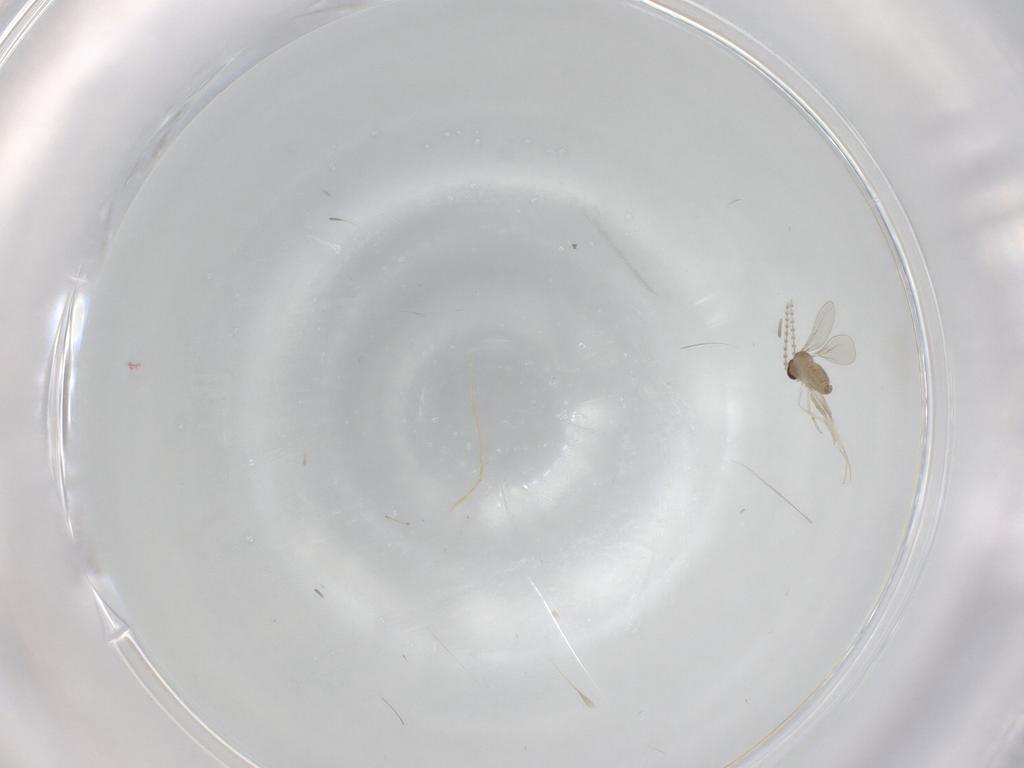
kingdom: Animalia
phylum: Arthropoda
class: Insecta
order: Diptera
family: Cecidomyiidae
